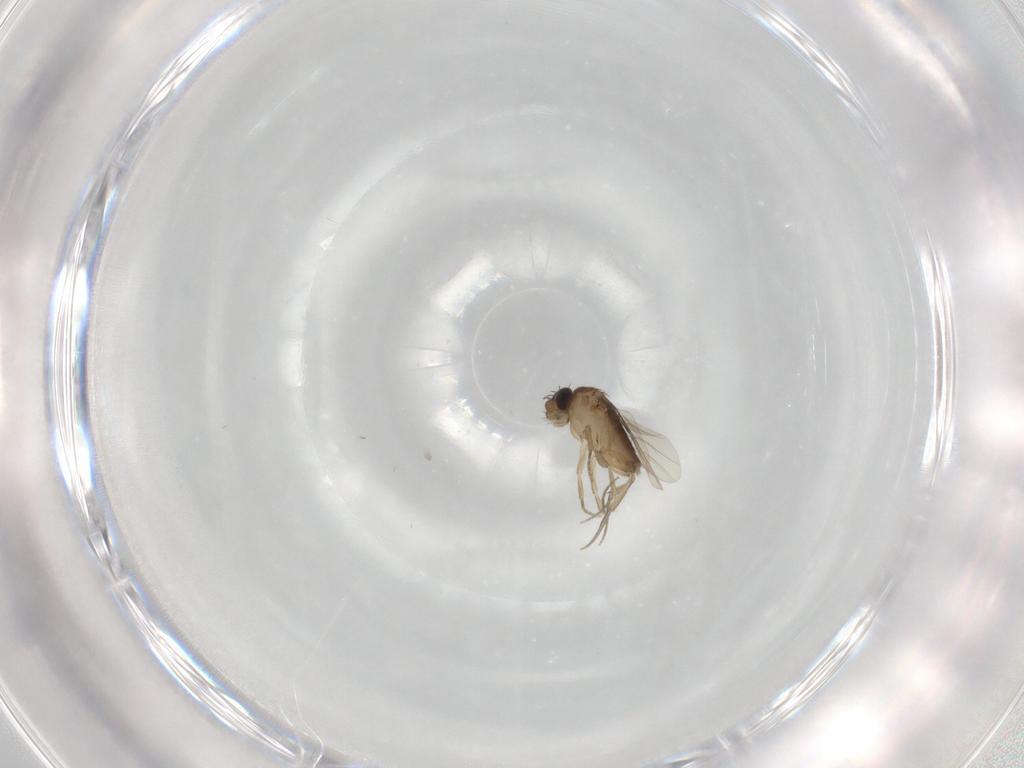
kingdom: Animalia
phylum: Arthropoda
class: Insecta
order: Diptera
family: Phoridae
